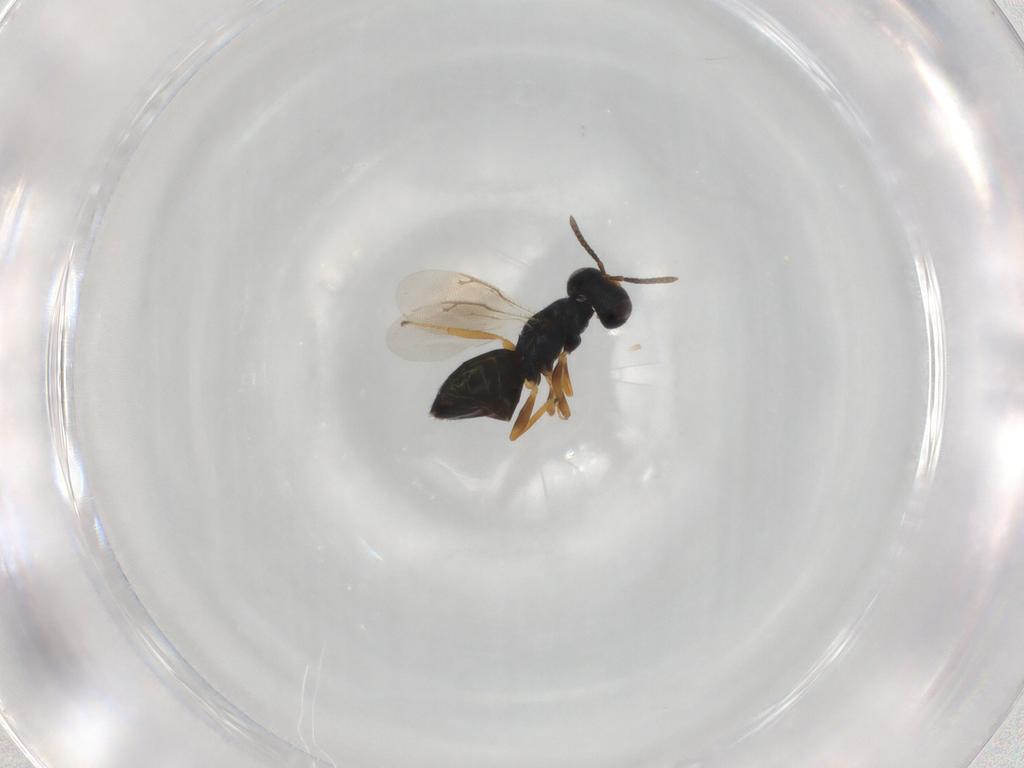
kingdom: Animalia
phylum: Arthropoda
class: Insecta
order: Hymenoptera
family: Pteromalidae
